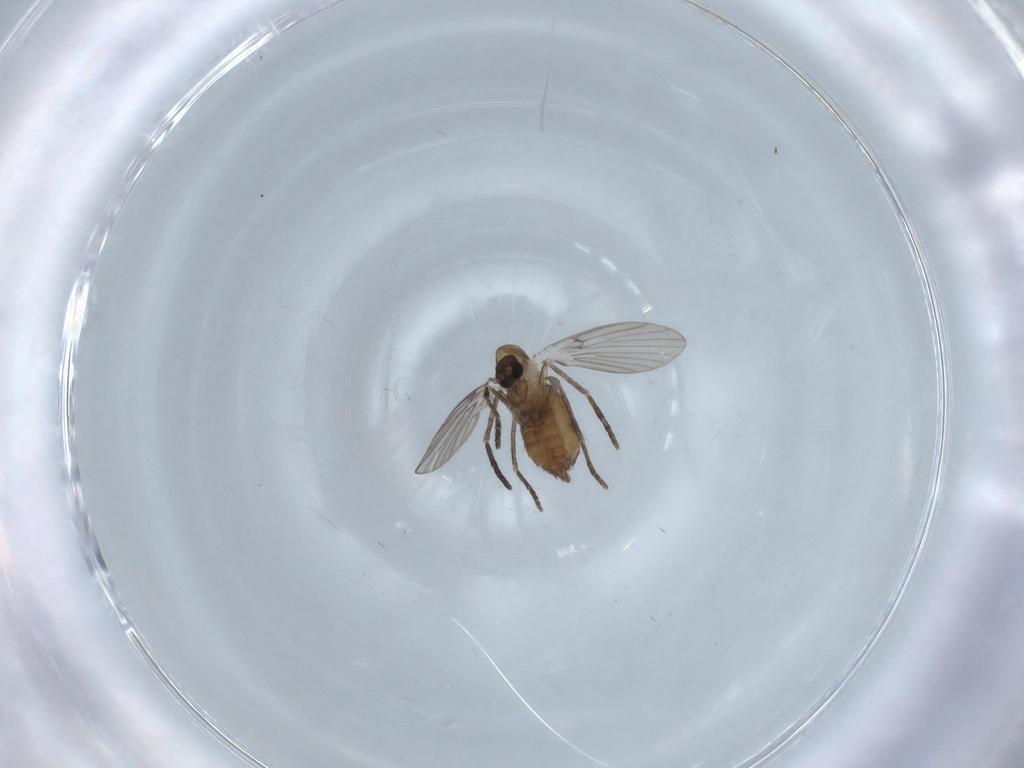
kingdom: Animalia
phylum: Arthropoda
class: Insecta
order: Diptera
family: Psychodidae
